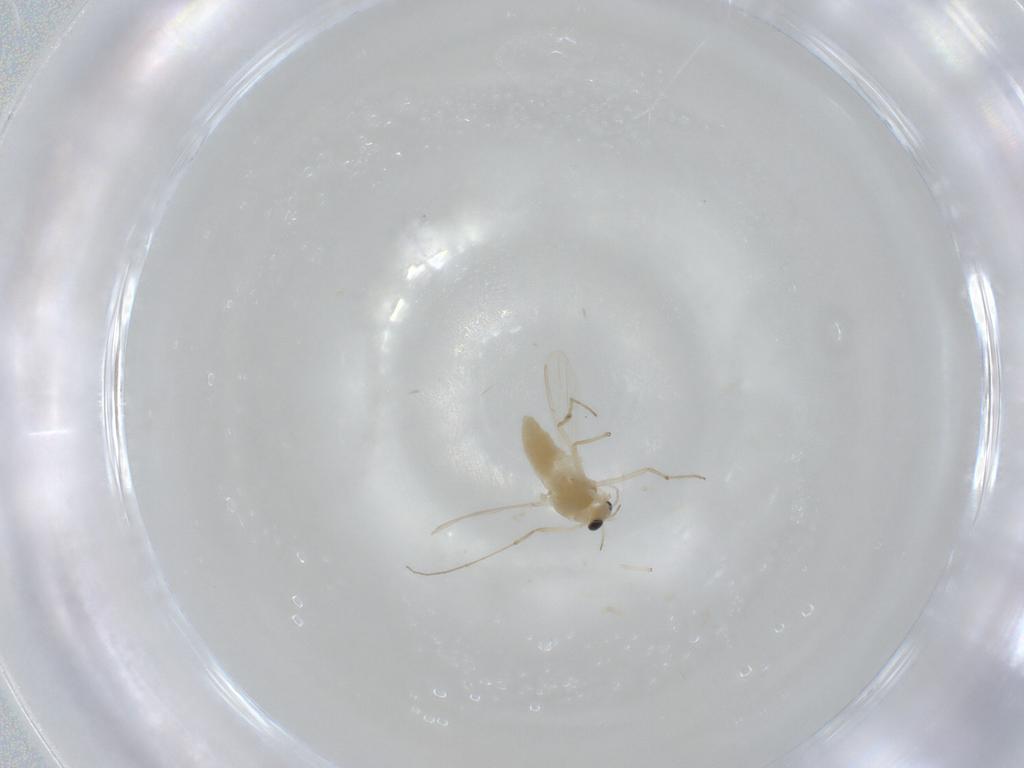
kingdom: Animalia
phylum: Arthropoda
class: Insecta
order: Diptera
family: Chironomidae
